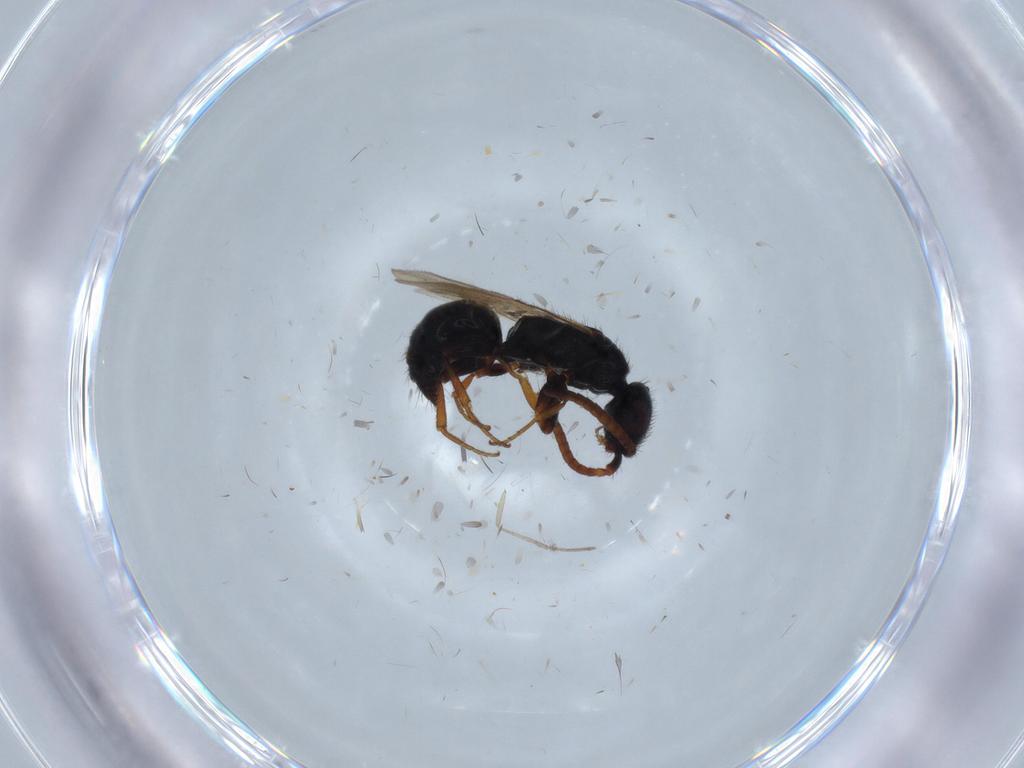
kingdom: Animalia
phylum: Arthropoda
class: Insecta
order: Hymenoptera
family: Bethylidae
